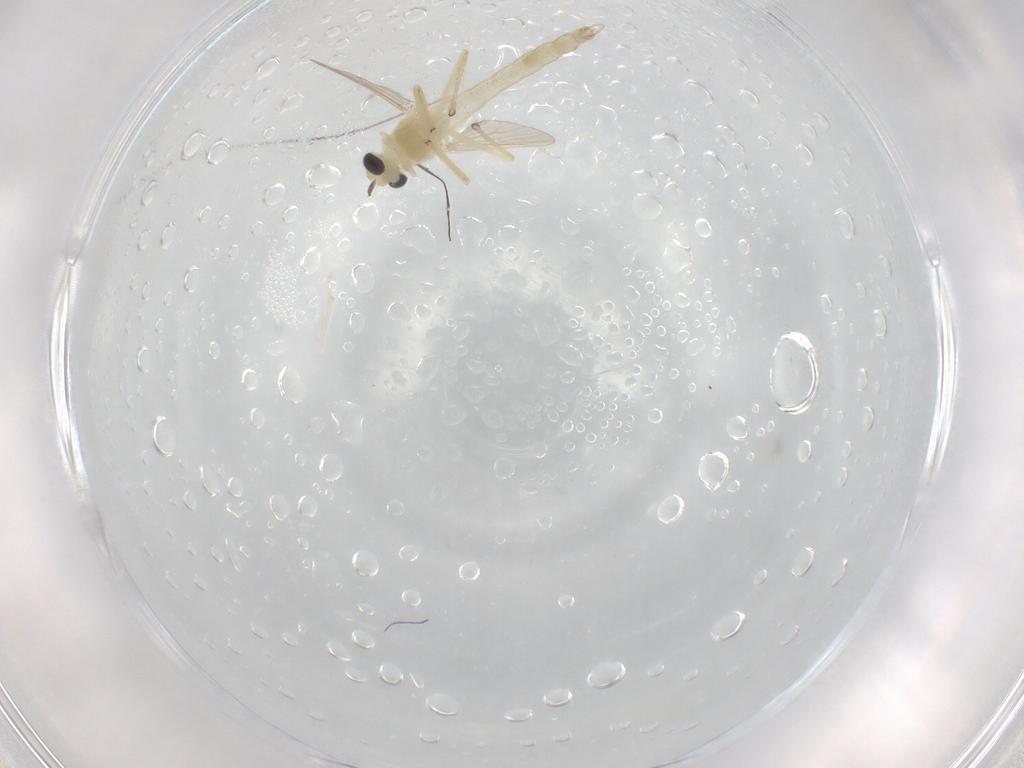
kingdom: Animalia
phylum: Arthropoda
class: Insecta
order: Diptera
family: Chironomidae
